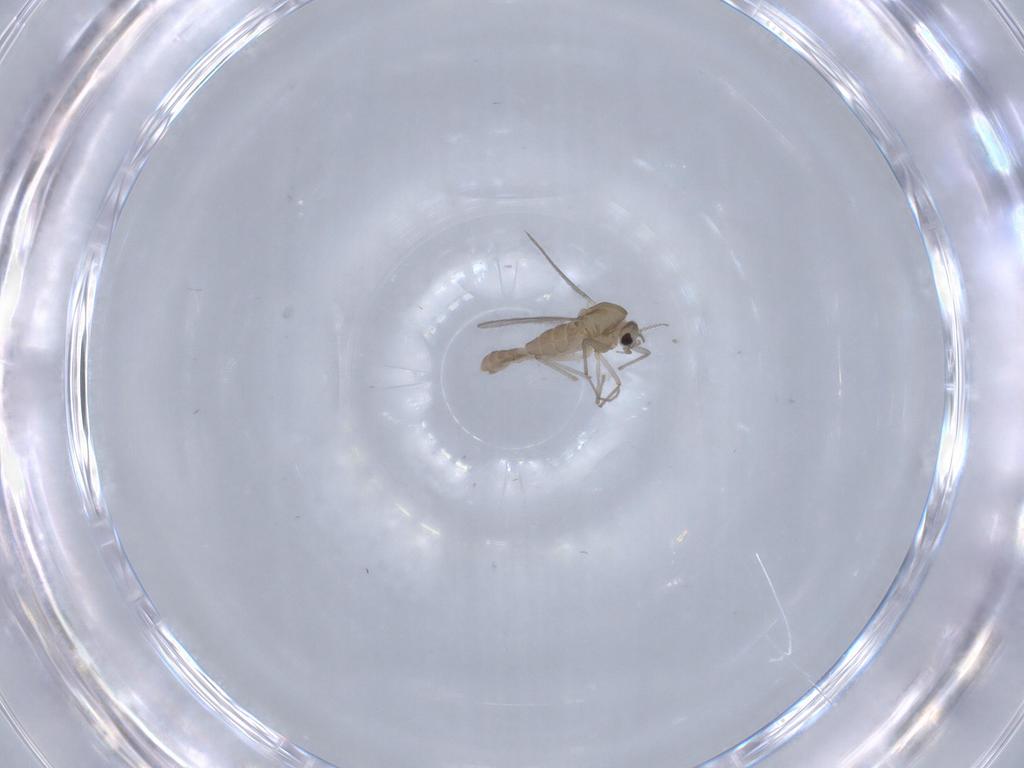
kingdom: Animalia
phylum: Arthropoda
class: Insecta
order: Diptera
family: Chironomidae
